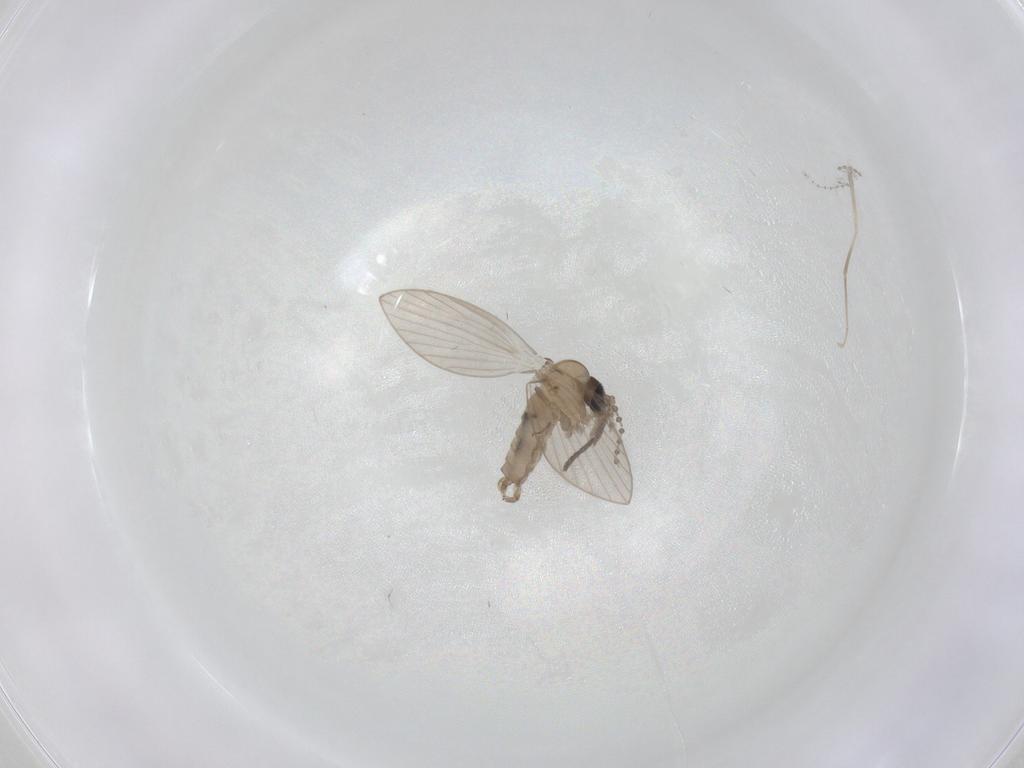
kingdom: Animalia
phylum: Arthropoda
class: Insecta
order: Diptera
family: Psychodidae
